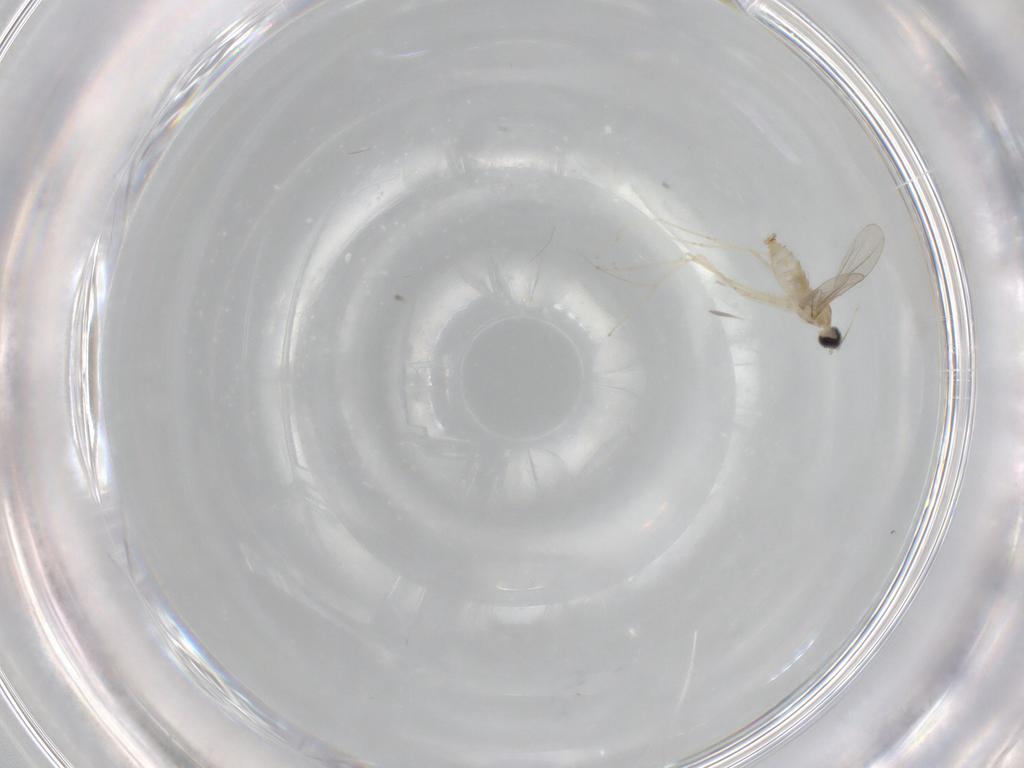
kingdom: Animalia
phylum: Arthropoda
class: Insecta
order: Diptera
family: Ceratopogonidae
